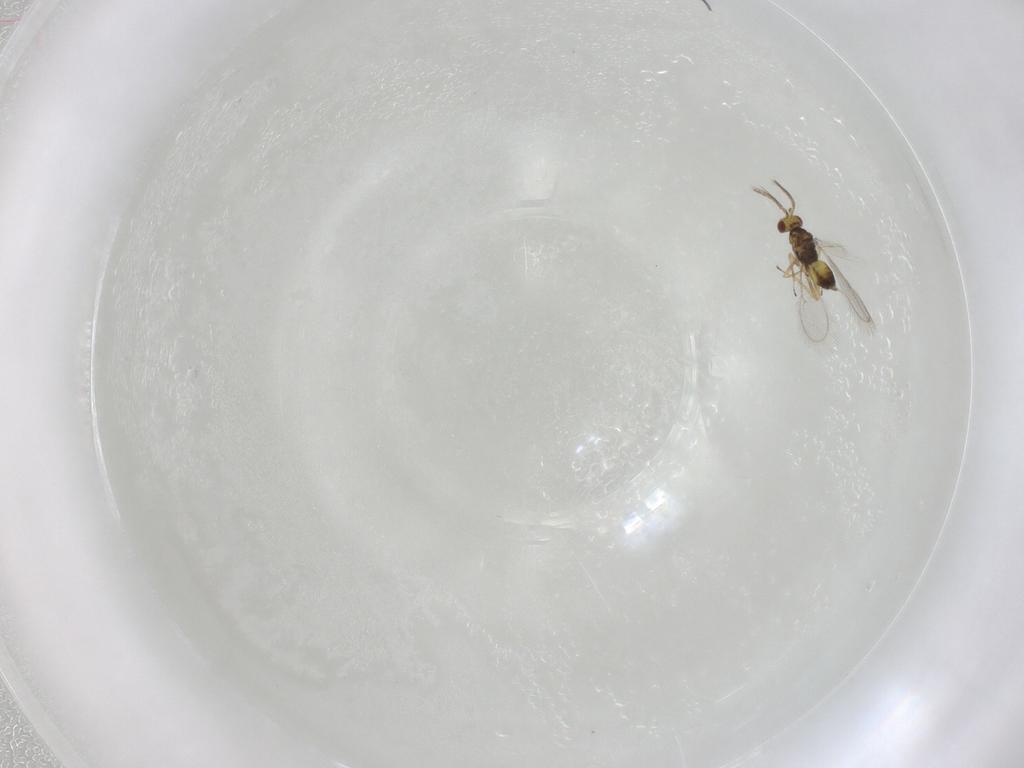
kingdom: Animalia
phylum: Arthropoda
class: Insecta
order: Hymenoptera
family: Eulophidae
